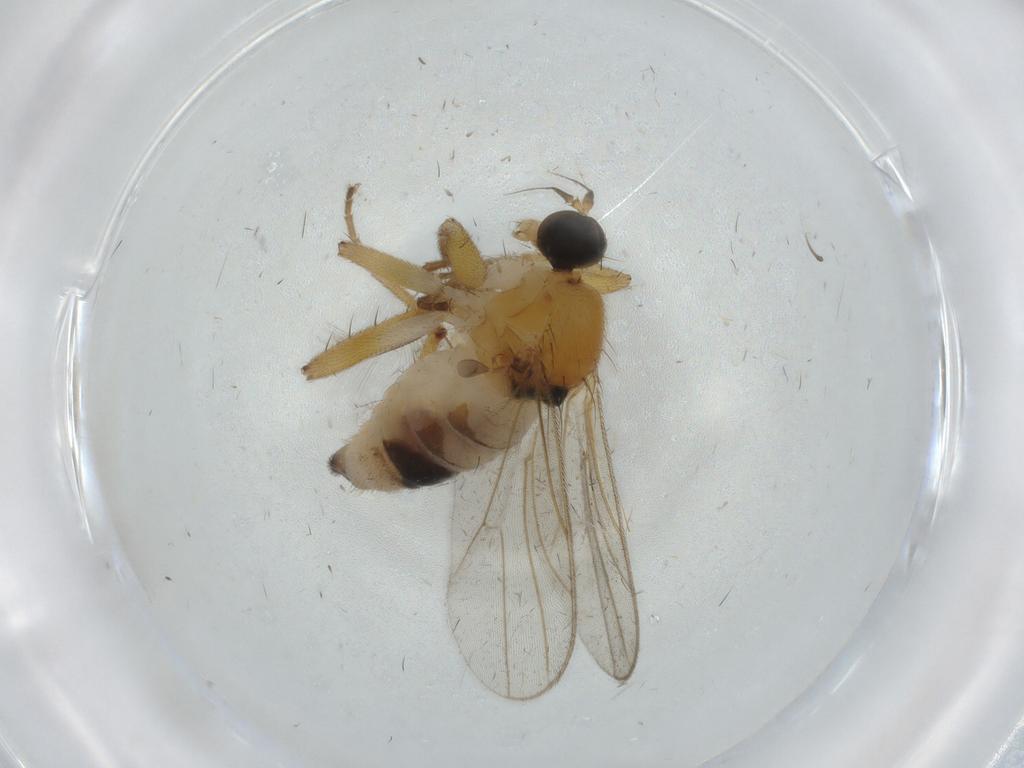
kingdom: Animalia
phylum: Arthropoda
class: Insecta
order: Diptera
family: Hybotidae
